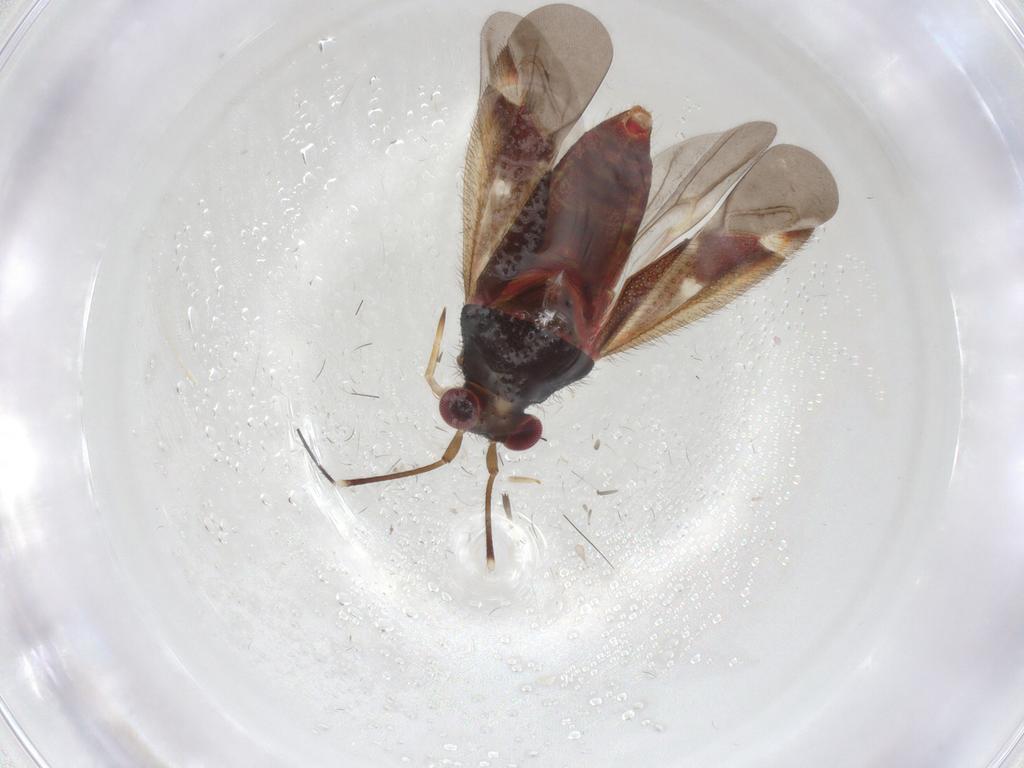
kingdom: Animalia
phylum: Arthropoda
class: Insecta
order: Hemiptera
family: Miridae
